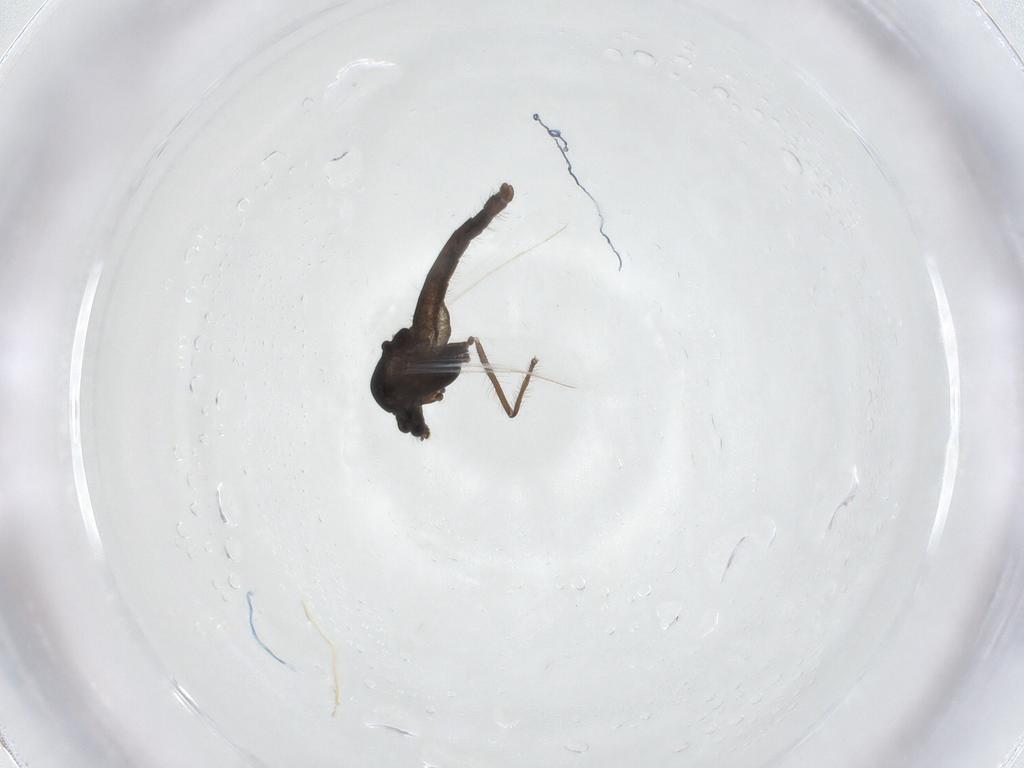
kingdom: Animalia
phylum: Arthropoda
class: Insecta
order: Diptera
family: Chironomidae
